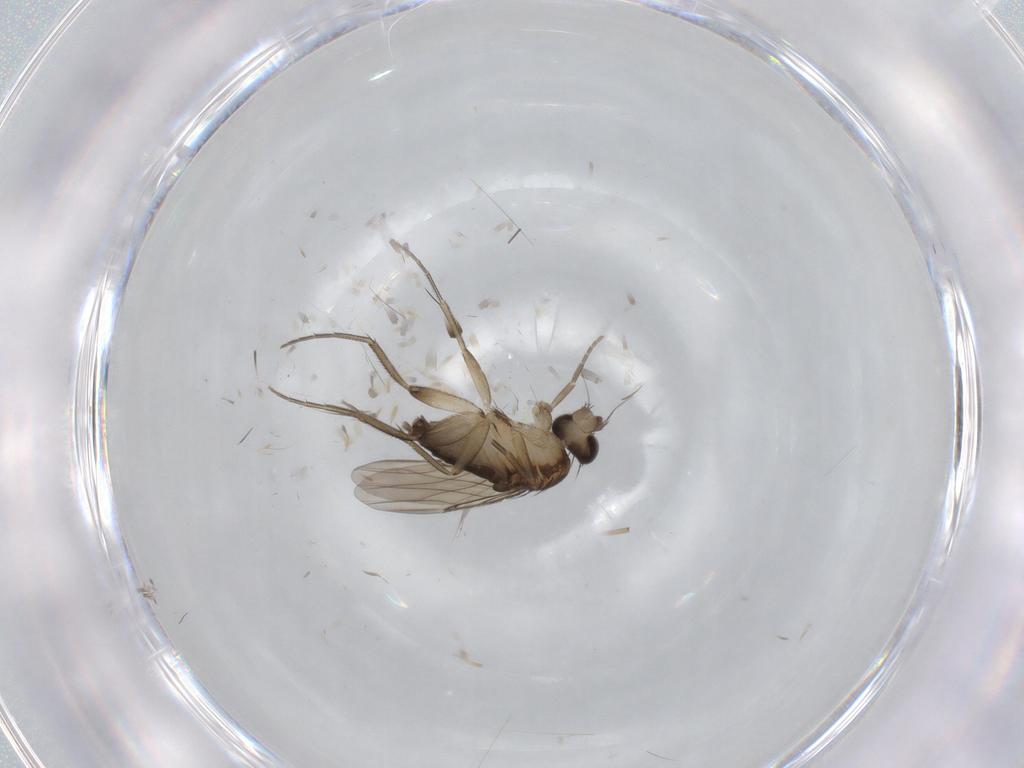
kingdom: Animalia
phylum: Arthropoda
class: Insecta
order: Diptera
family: Phoridae
